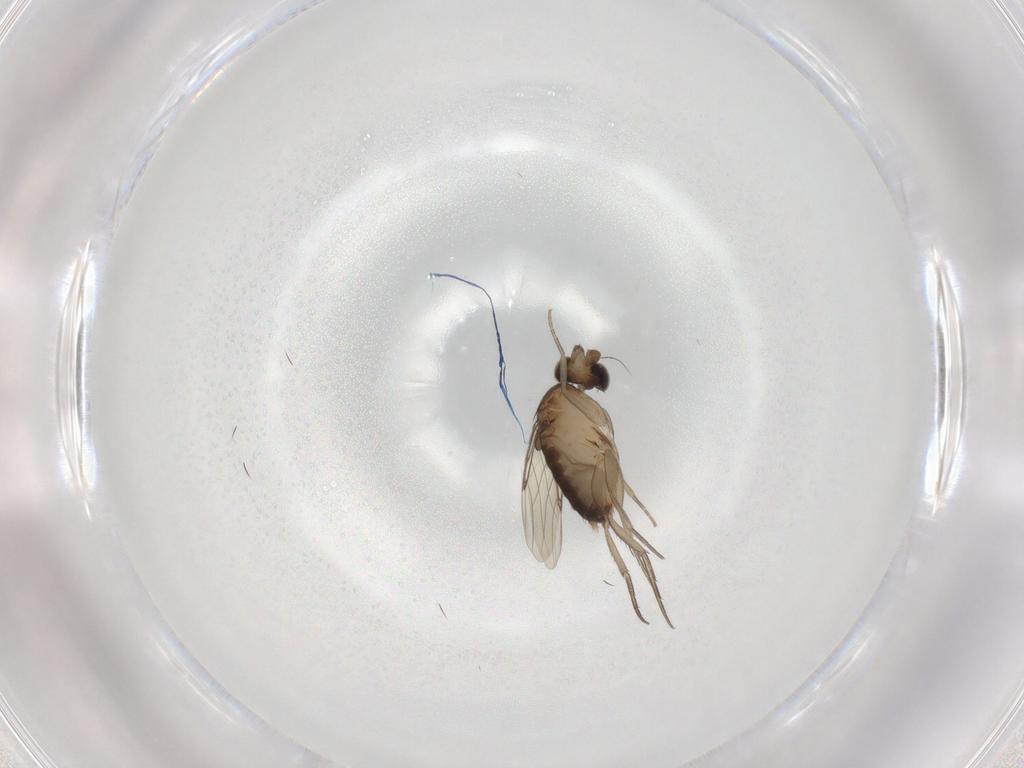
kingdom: Animalia
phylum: Arthropoda
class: Insecta
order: Diptera
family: Phoridae
